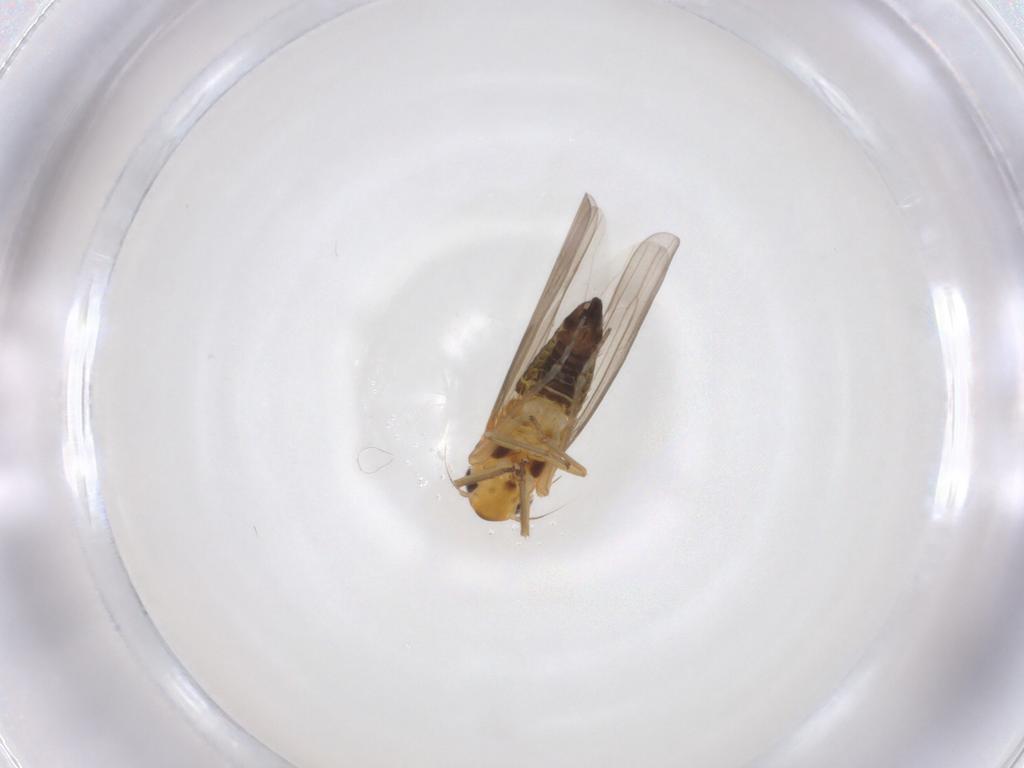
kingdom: Animalia
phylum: Arthropoda
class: Insecta
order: Hemiptera
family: Cicadellidae
